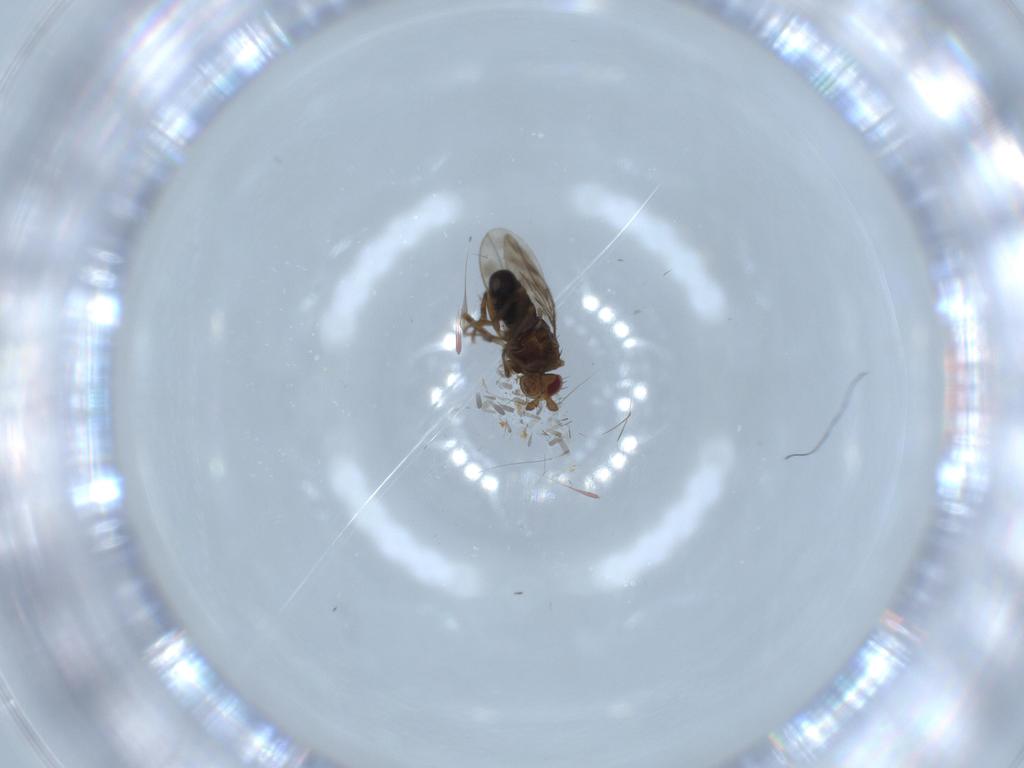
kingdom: Animalia
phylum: Arthropoda
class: Insecta
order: Diptera
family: Sphaeroceridae
